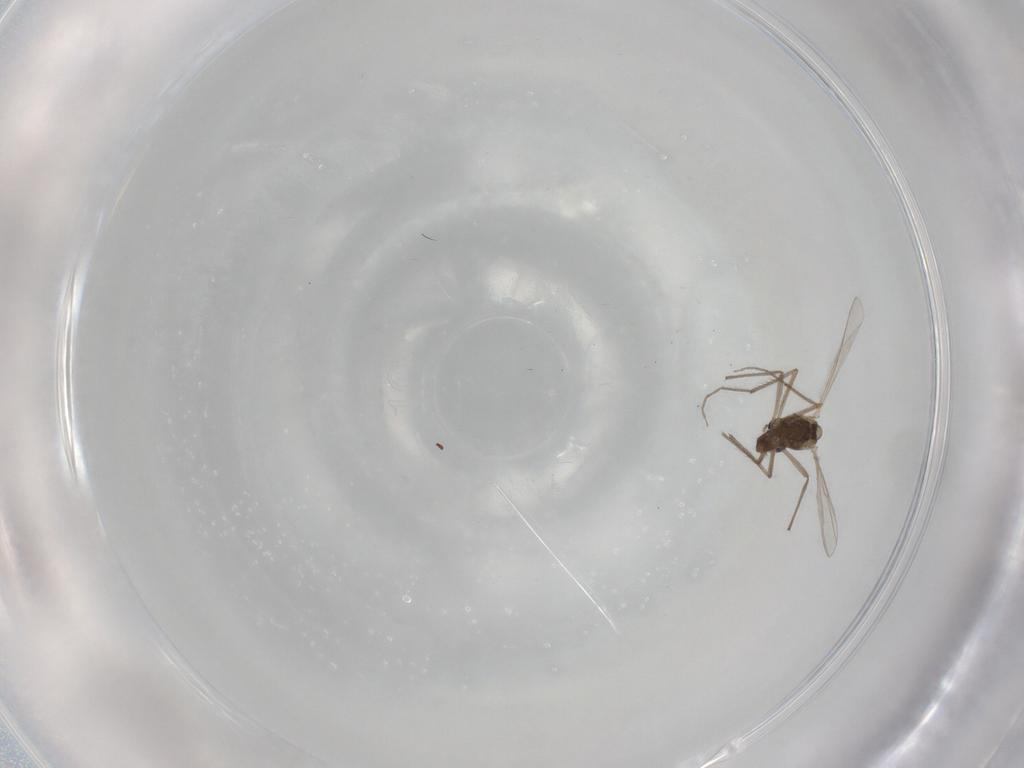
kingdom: Animalia
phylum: Arthropoda
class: Insecta
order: Diptera
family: Chironomidae
